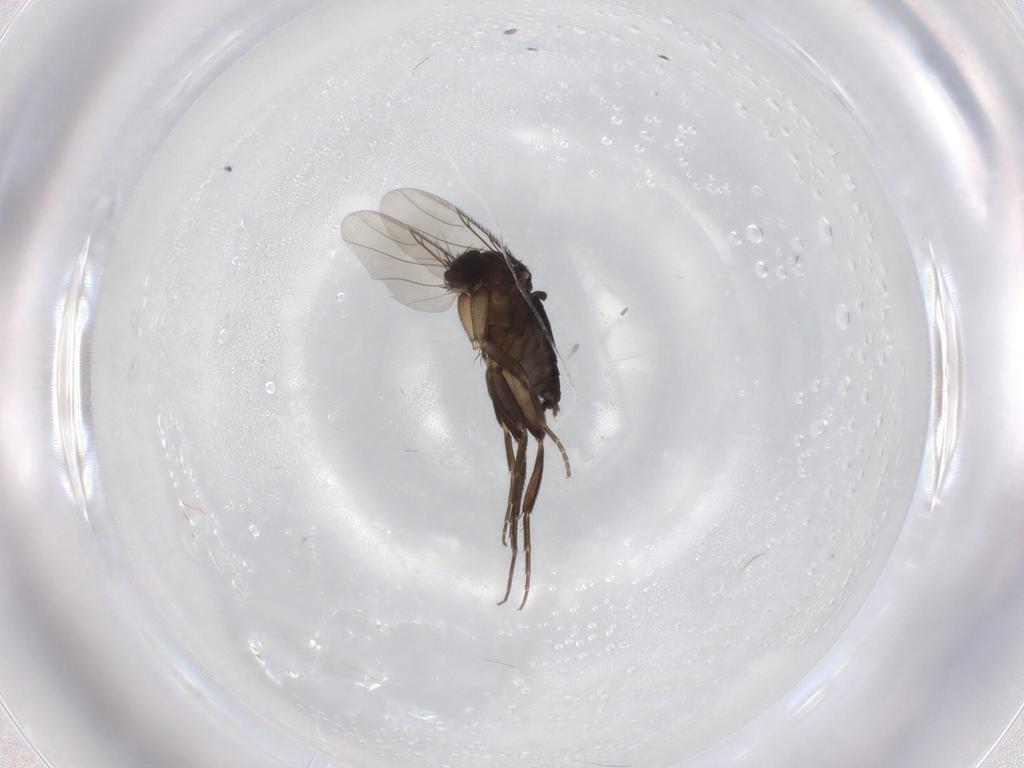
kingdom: Animalia
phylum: Arthropoda
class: Insecta
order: Diptera
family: Phoridae
